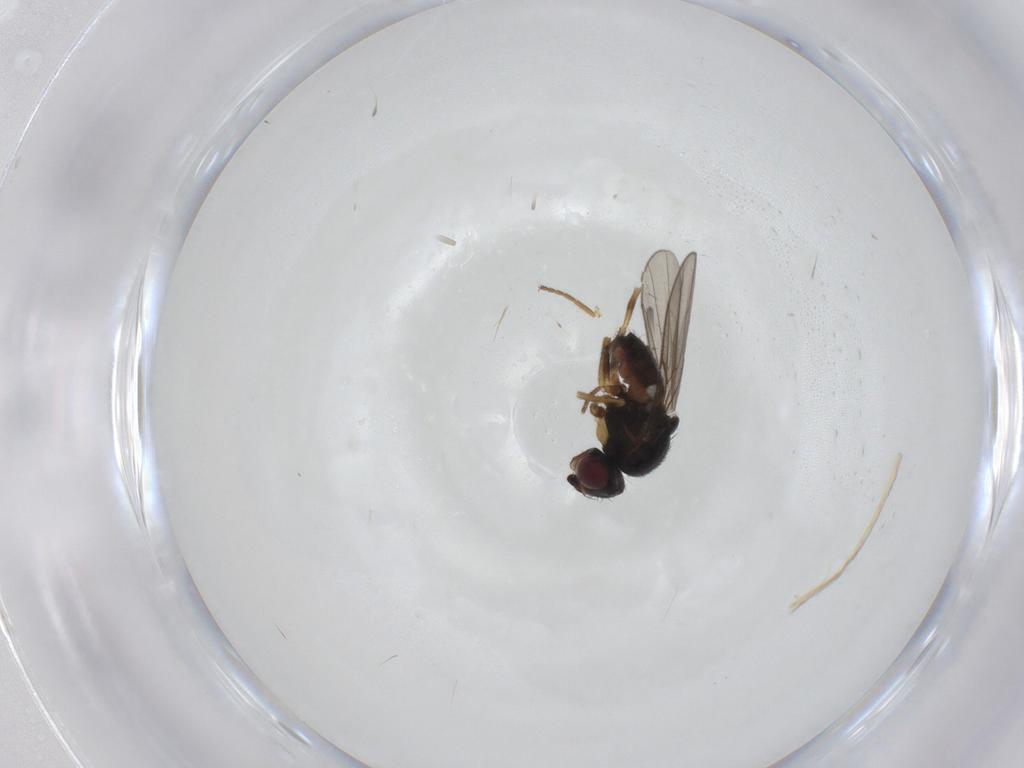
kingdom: Animalia
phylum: Arthropoda
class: Insecta
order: Diptera
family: Chloropidae
